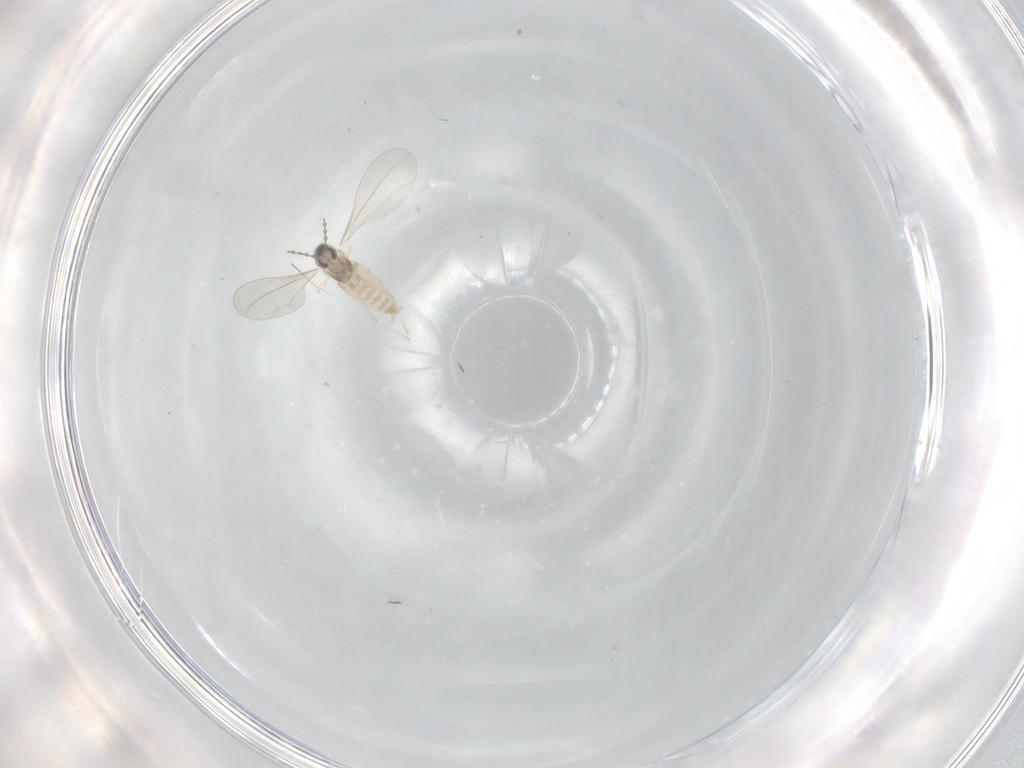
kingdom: Animalia
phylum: Arthropoda
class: Insecta
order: Diptera
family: Cecidomyiidae
